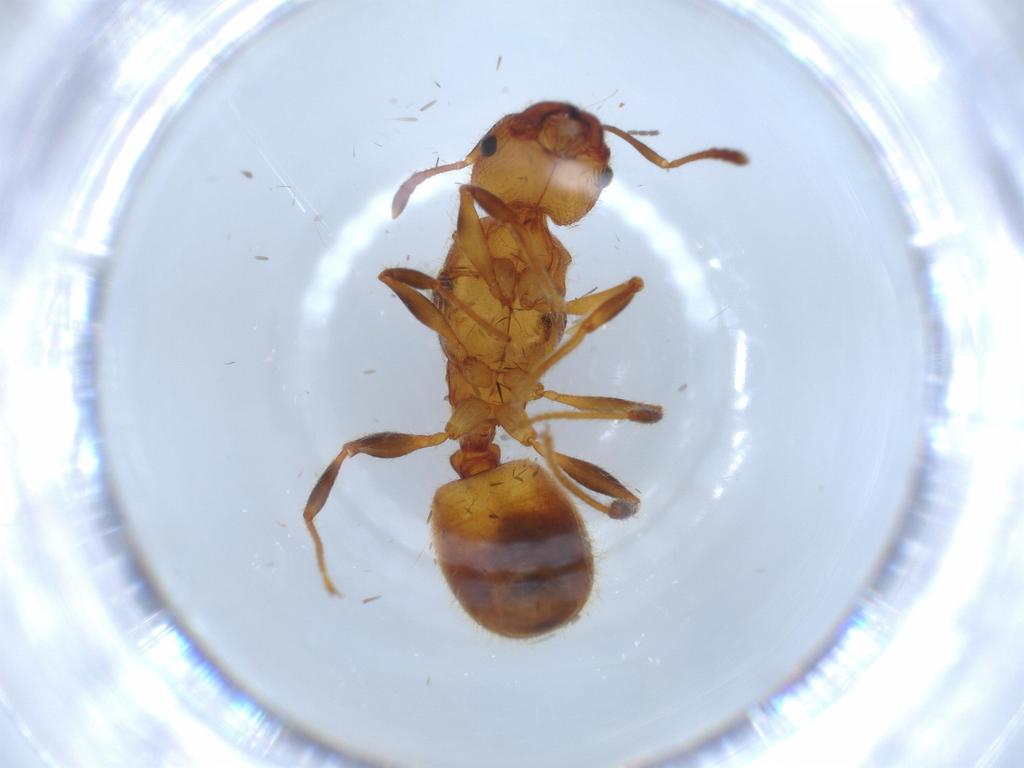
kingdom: Animalia
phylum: Arthropoda
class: Insecta
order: Hymenoptera
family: Formicidae
